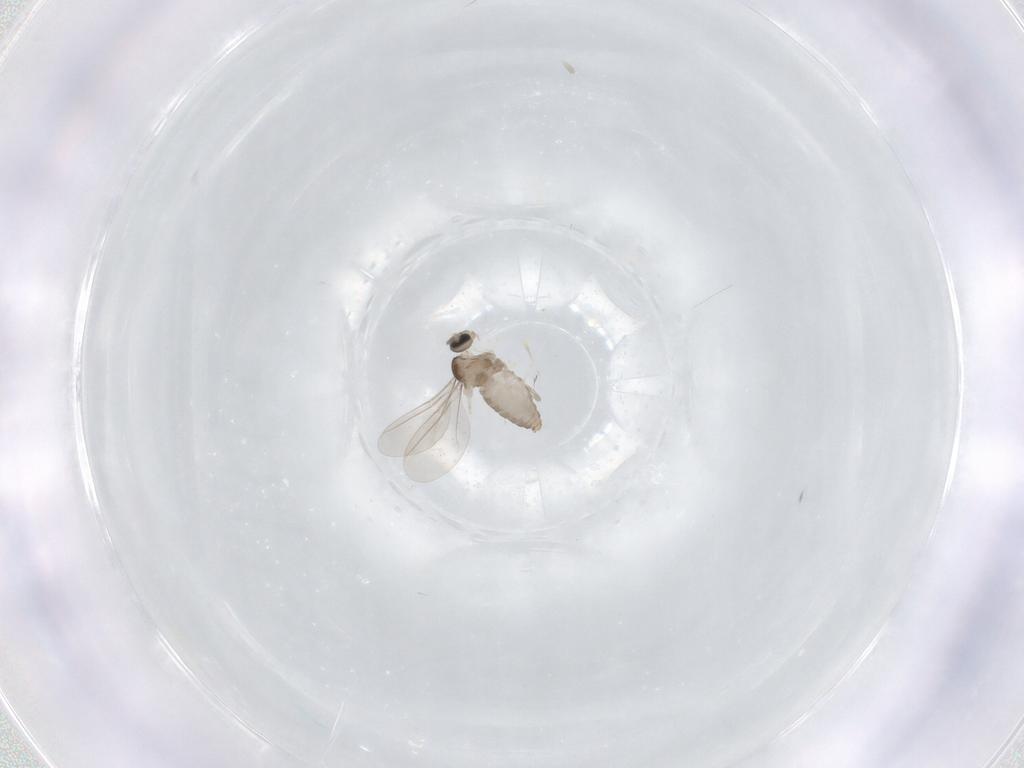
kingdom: Animalia
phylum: Arthropoda
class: Insecta
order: Diptera
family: Cecidomyiidae
